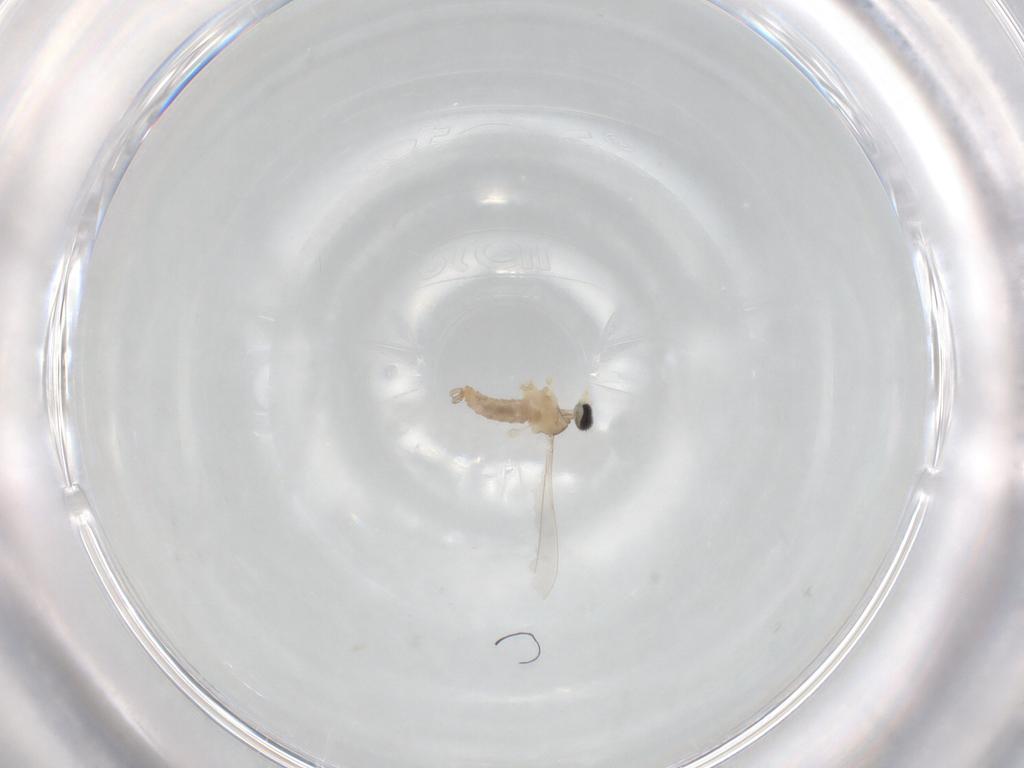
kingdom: Animalia
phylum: Arthropoda
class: Insecta
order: Diptera
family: Cecidomyiidae
